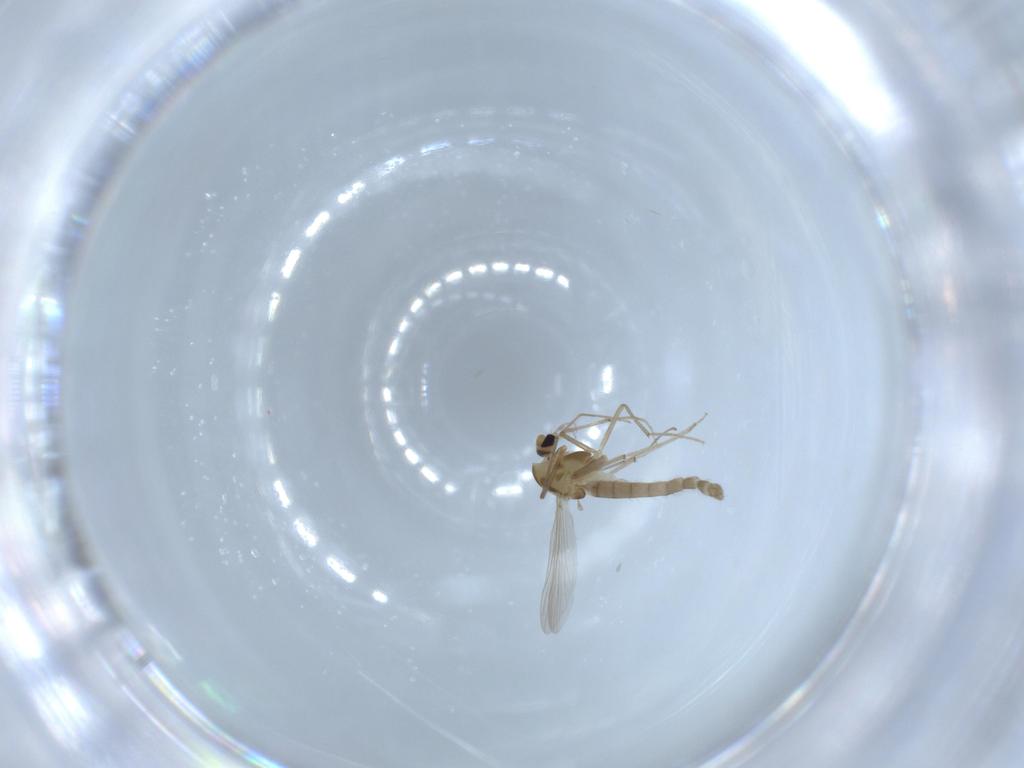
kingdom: Animalia
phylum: Arthropoda
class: Insecta
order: Diptera
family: Chironomidae
